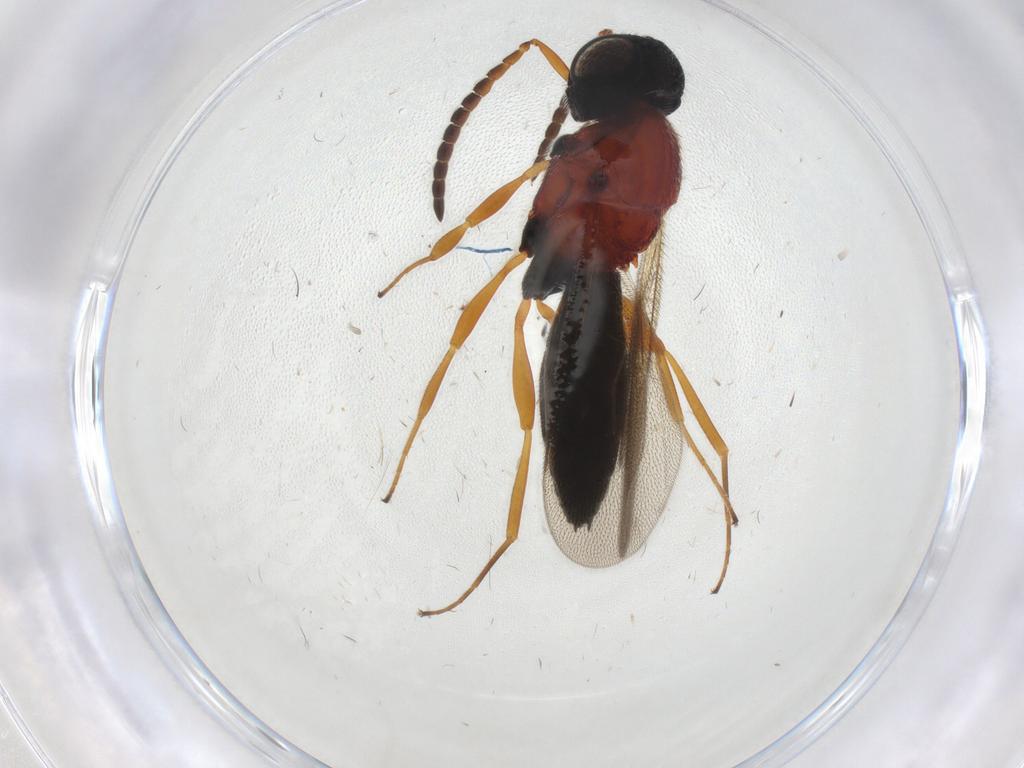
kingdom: Animalia
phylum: Arthropoda
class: Insecta
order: Hymenoptera
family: Scelionidae
